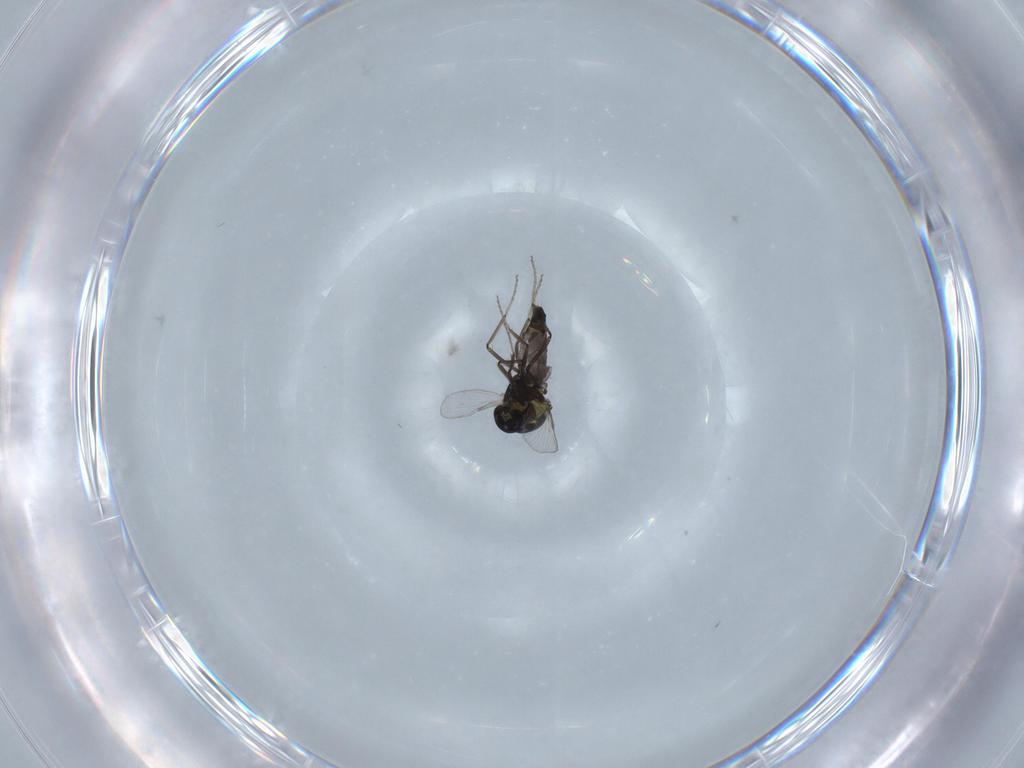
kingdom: Animalia
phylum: Arthropoda
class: Insecta
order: Diptera
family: Ceratopogonidae
